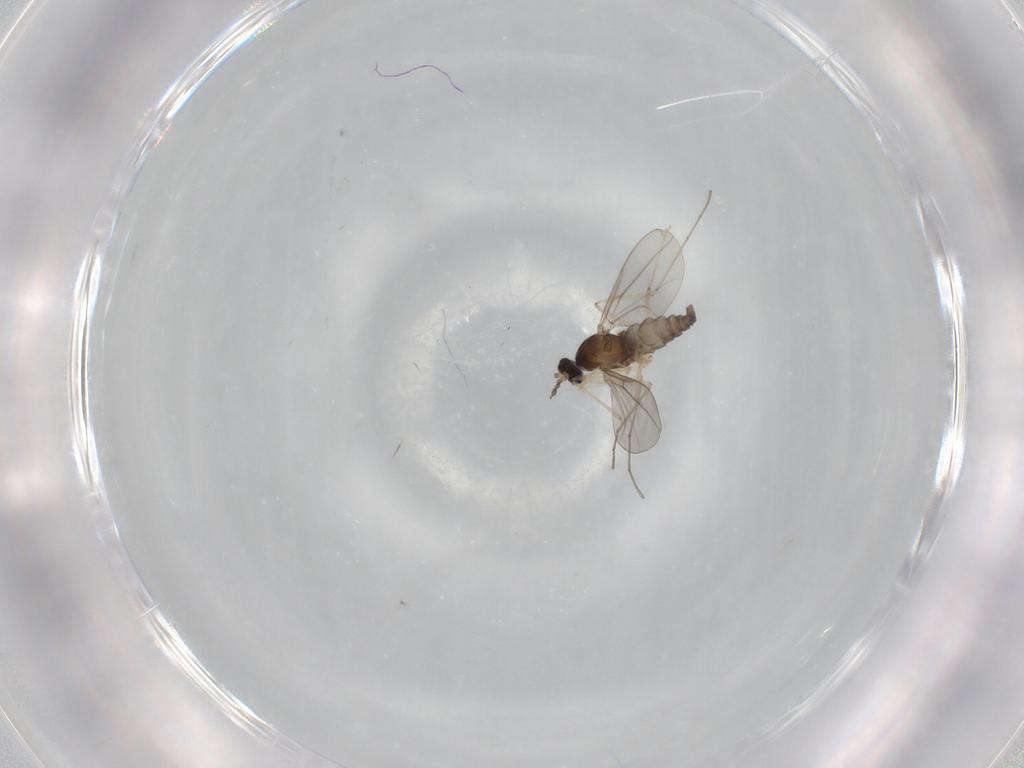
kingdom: Animalia
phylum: Arthropoda
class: Insecta
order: Diptera
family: Cecidomyiidae
